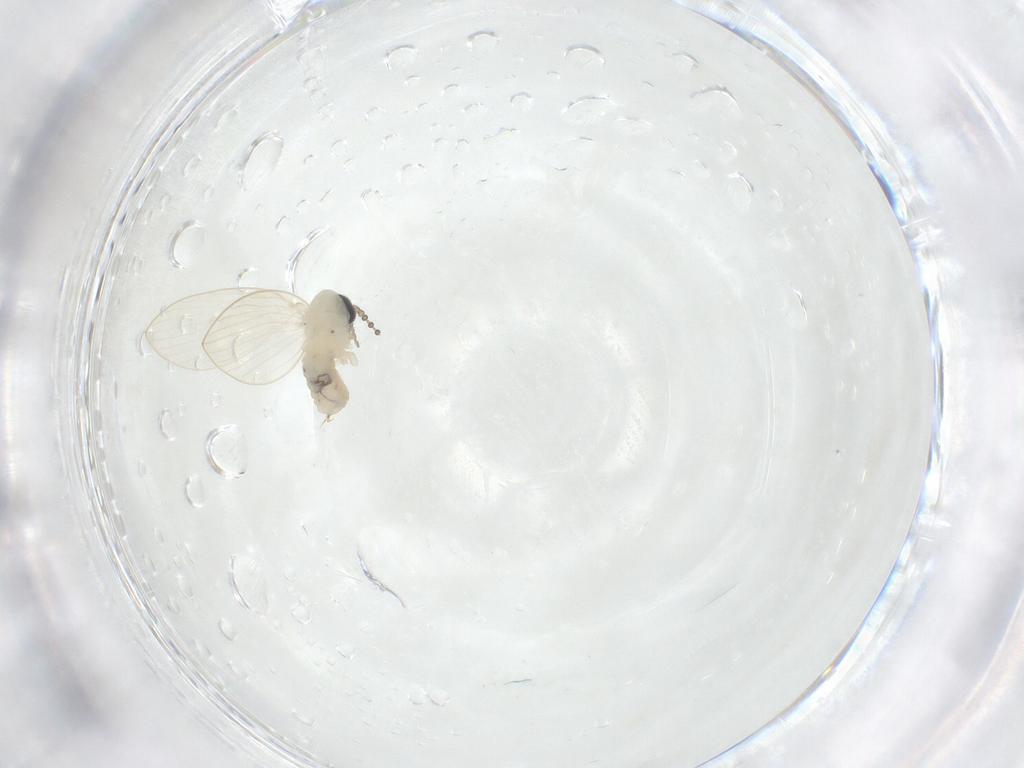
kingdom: Animalia
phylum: Arthropoda
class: Insecta
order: Diptera
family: Psychodidae
